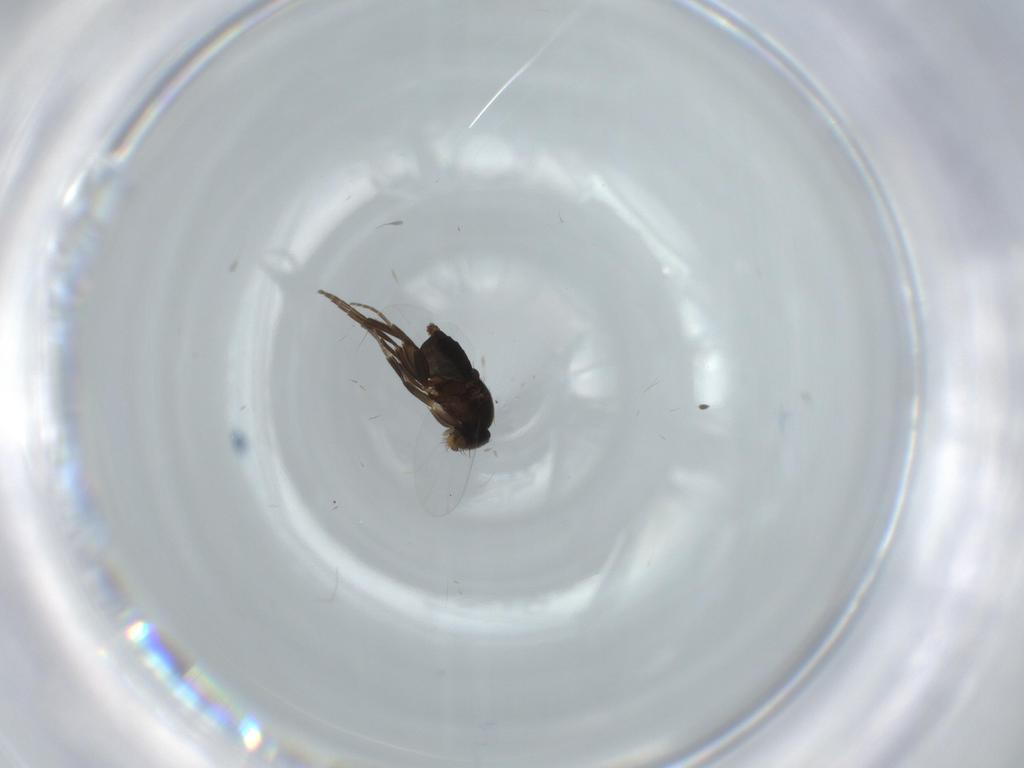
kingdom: Animalia
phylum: Arthropoda
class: Insecta
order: Diptera
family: Phoridae
